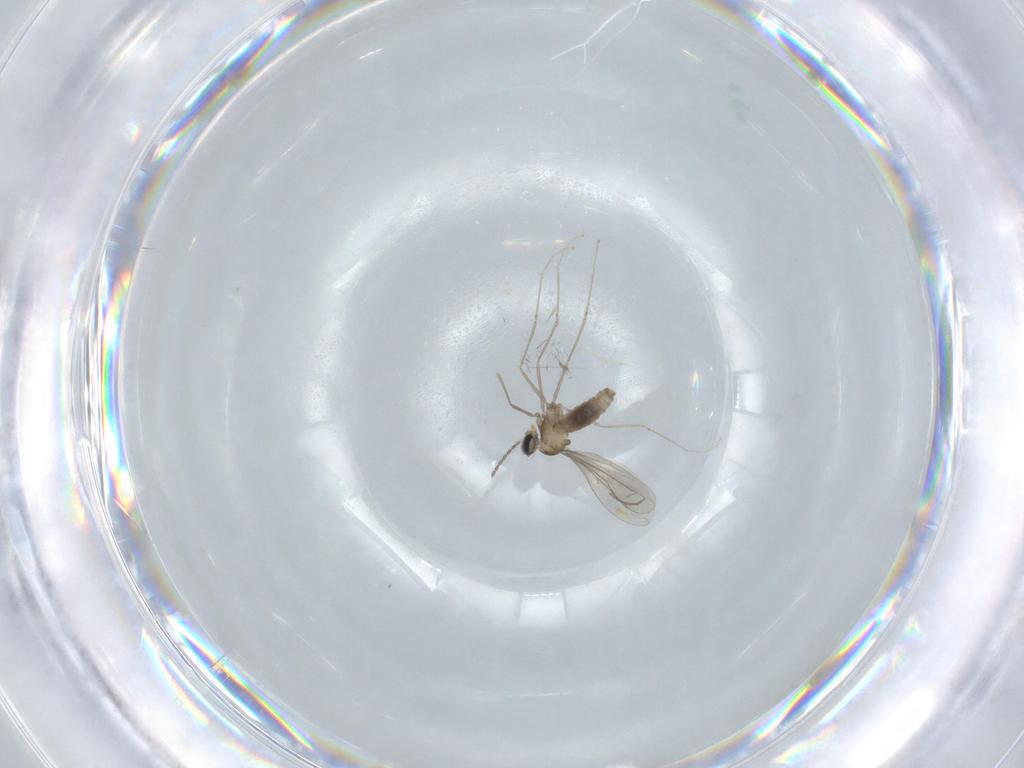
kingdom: Animalia
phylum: Arthropoda
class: Insecta
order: Diptera
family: Cecidomyiidae
